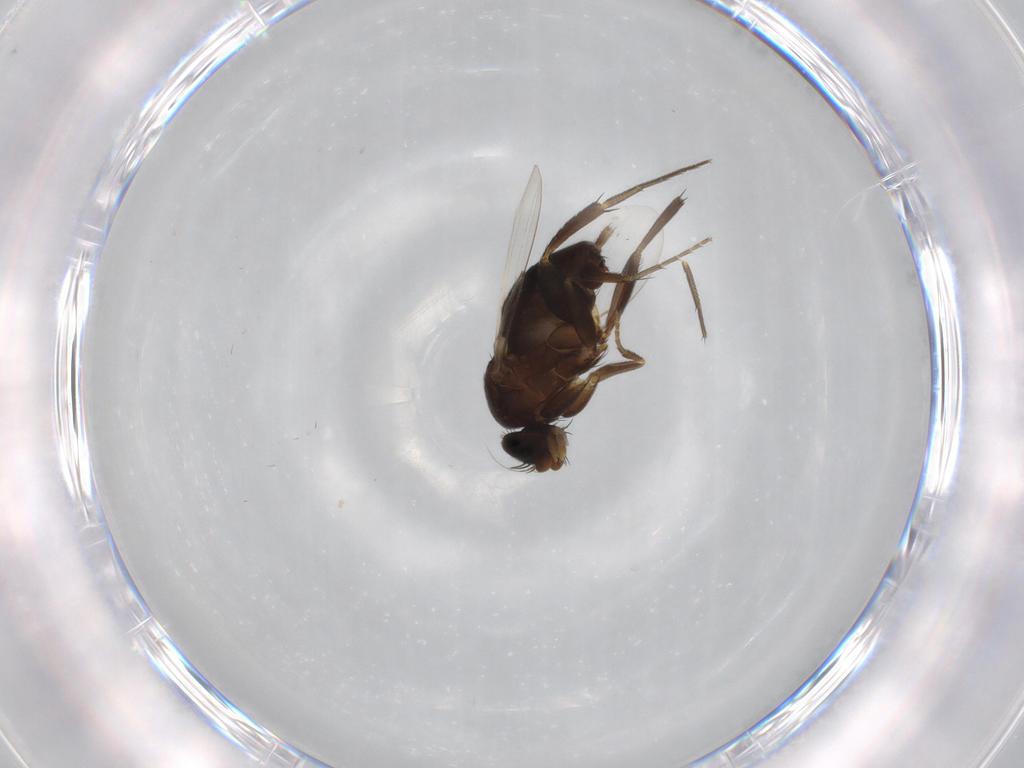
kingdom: Animalia
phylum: Arthropoda
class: Insecta
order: Diptera
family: Phoridae
